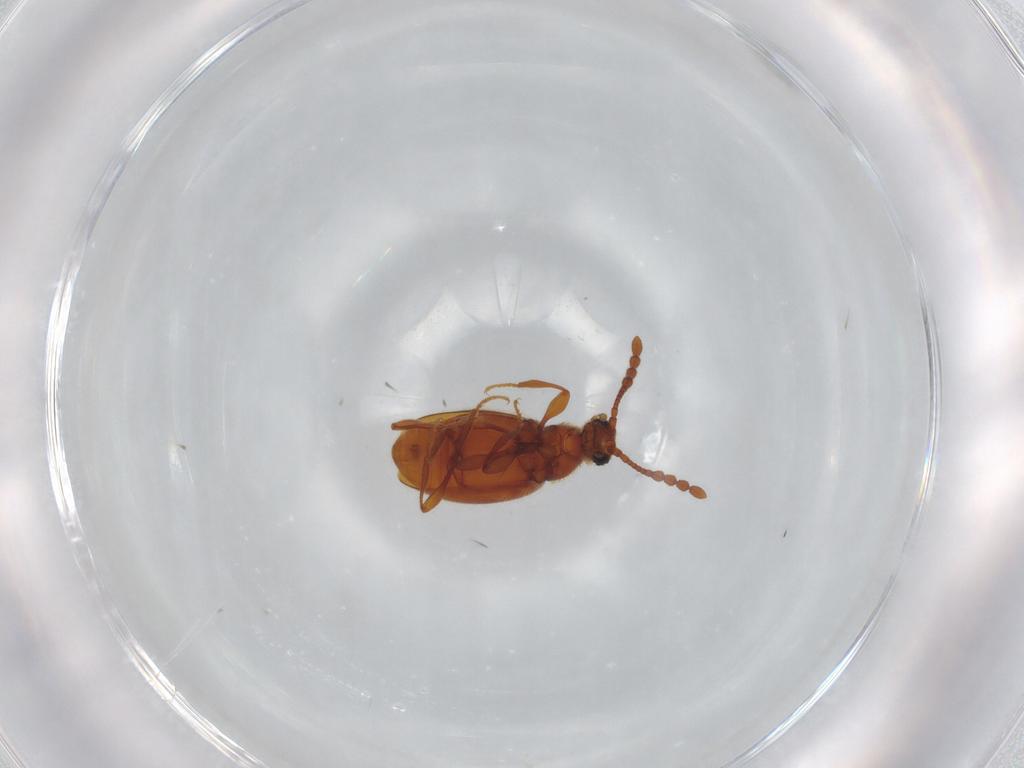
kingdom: Animalia
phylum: Arthropoda
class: Insecta
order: Coleoptera
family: Staphylinidae
